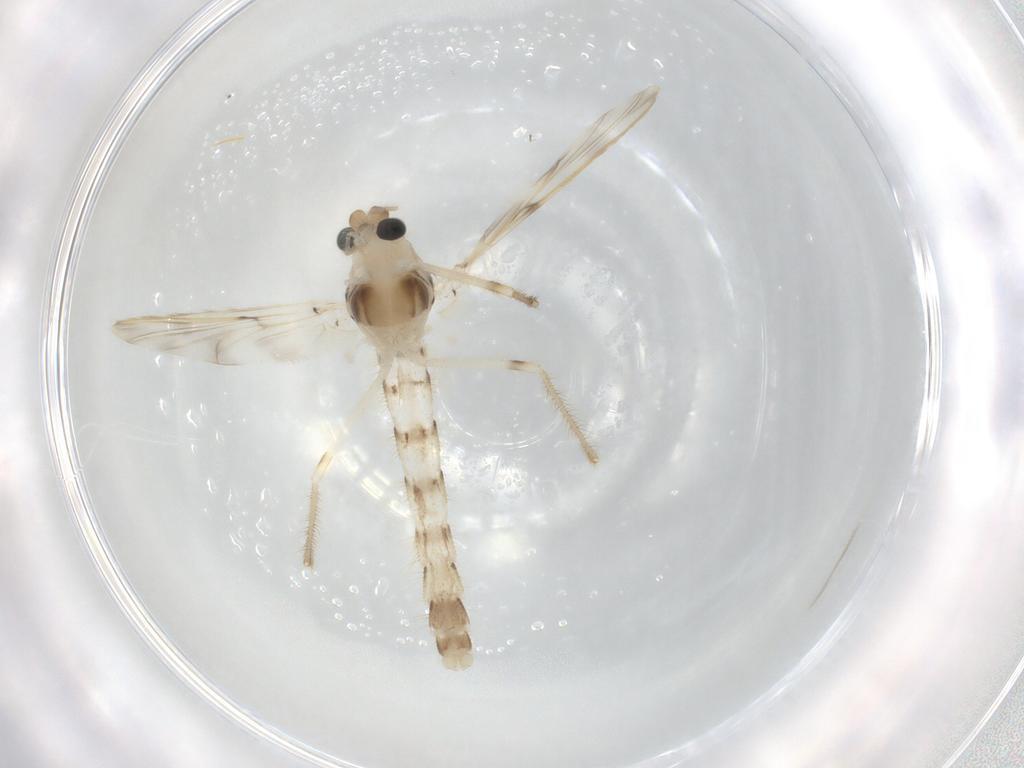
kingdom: Animalia
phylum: Arthropoda
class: Insecta
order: Diptera
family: Chironomidae
